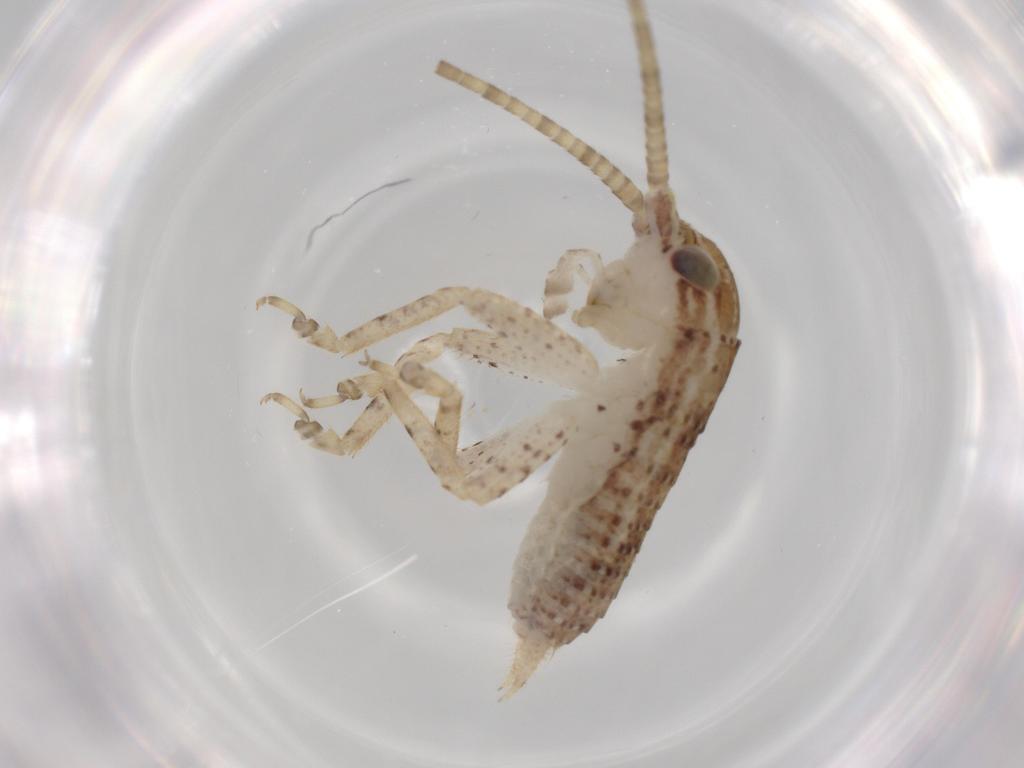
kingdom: Animalia
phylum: Arthropoda
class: Insecta
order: Orthoptera
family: Gryllidae
